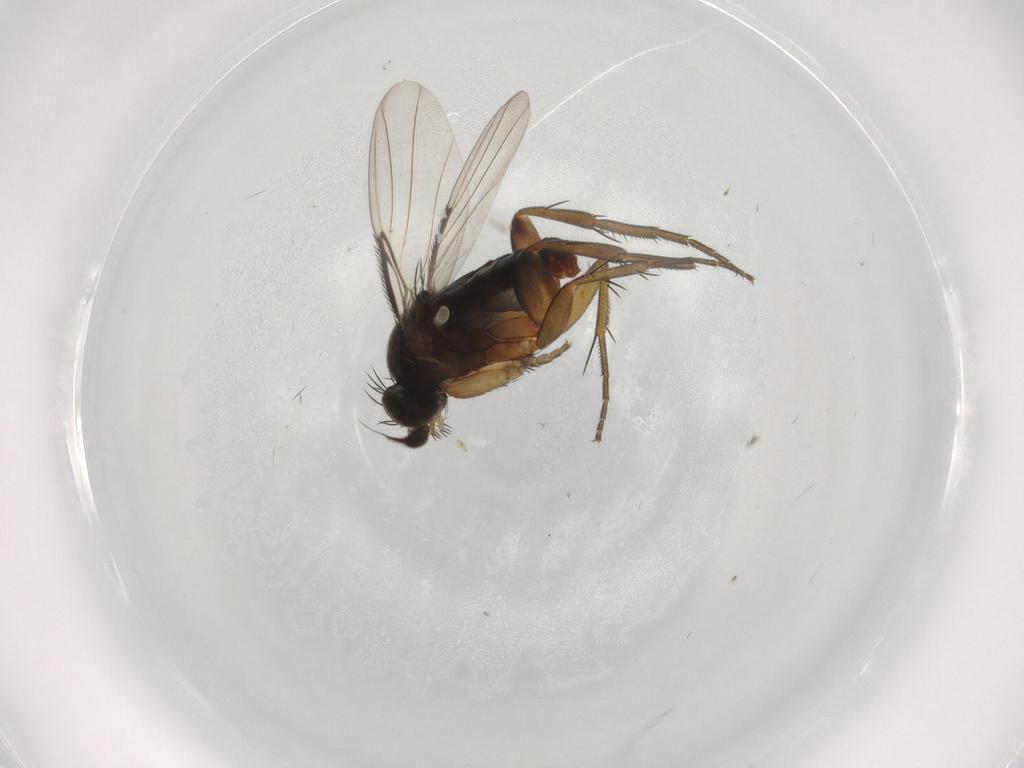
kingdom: Animalia
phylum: Arthropoda
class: Insecta
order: Diptera
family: Phoridae
